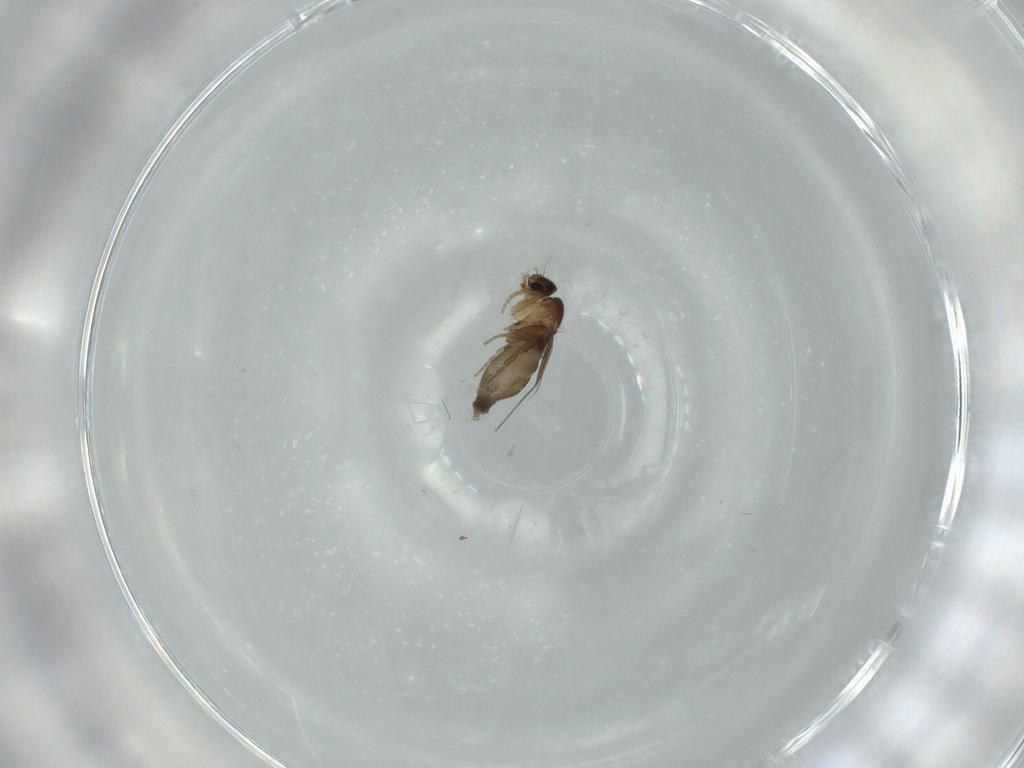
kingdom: Animalia
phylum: Arthropoda
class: Insecta
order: Diptera
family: Phoridae
